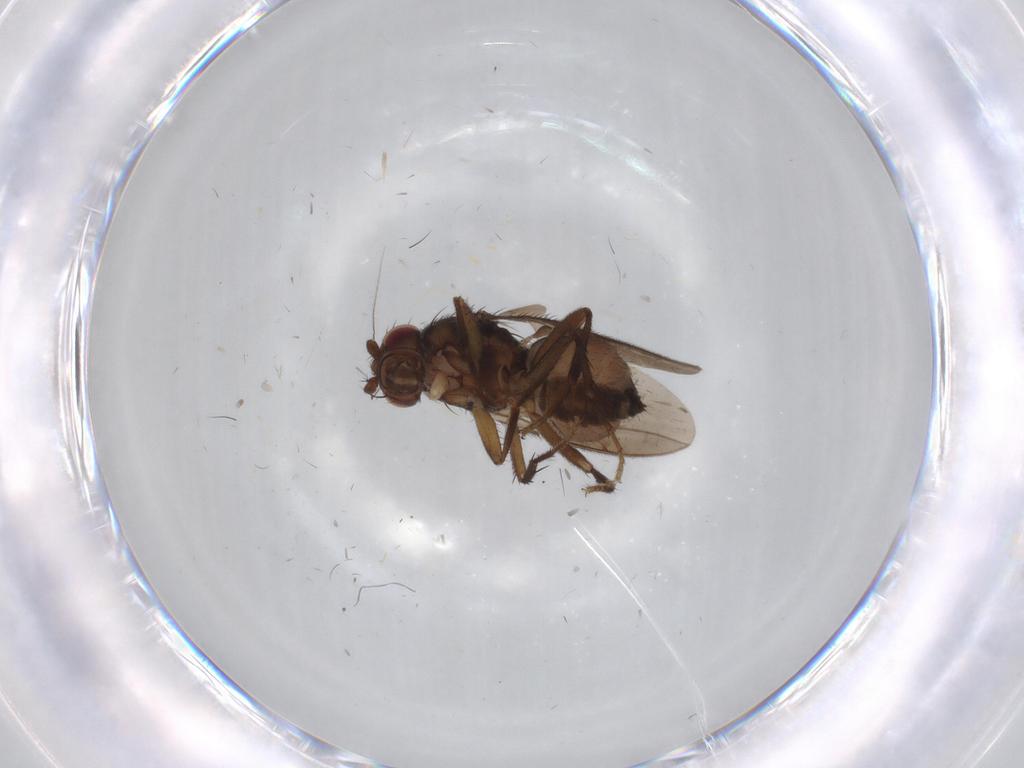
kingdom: Animalia
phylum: Arthropoda
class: Insecta
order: Diptera
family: Sphaeroceridae
